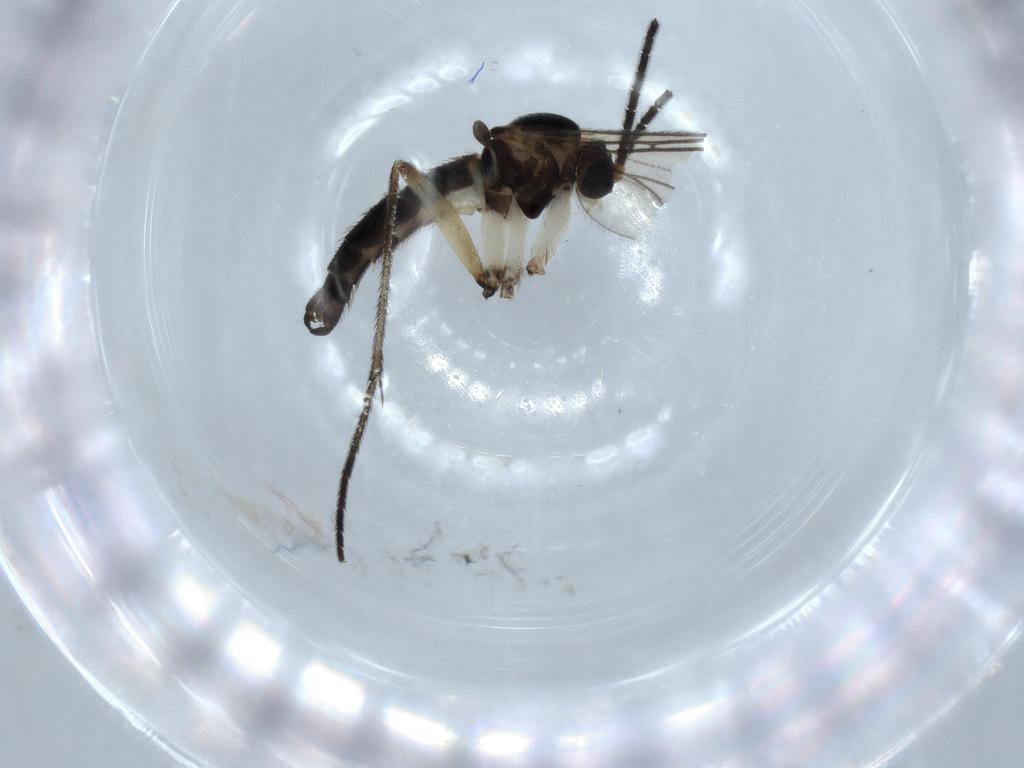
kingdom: Animalia
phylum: Arthropoda
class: Insecta
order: Diptera
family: Sciaridae
